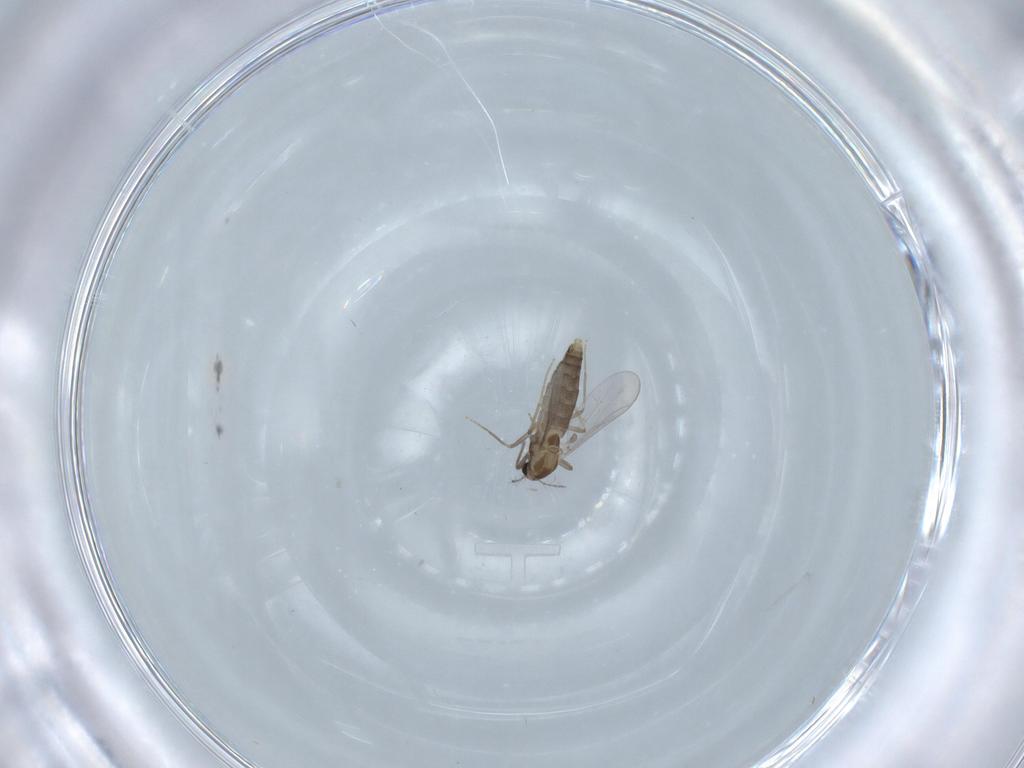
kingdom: Animalia
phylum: Arthropoda
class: Insecta
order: Diptera
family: Chironomidae
